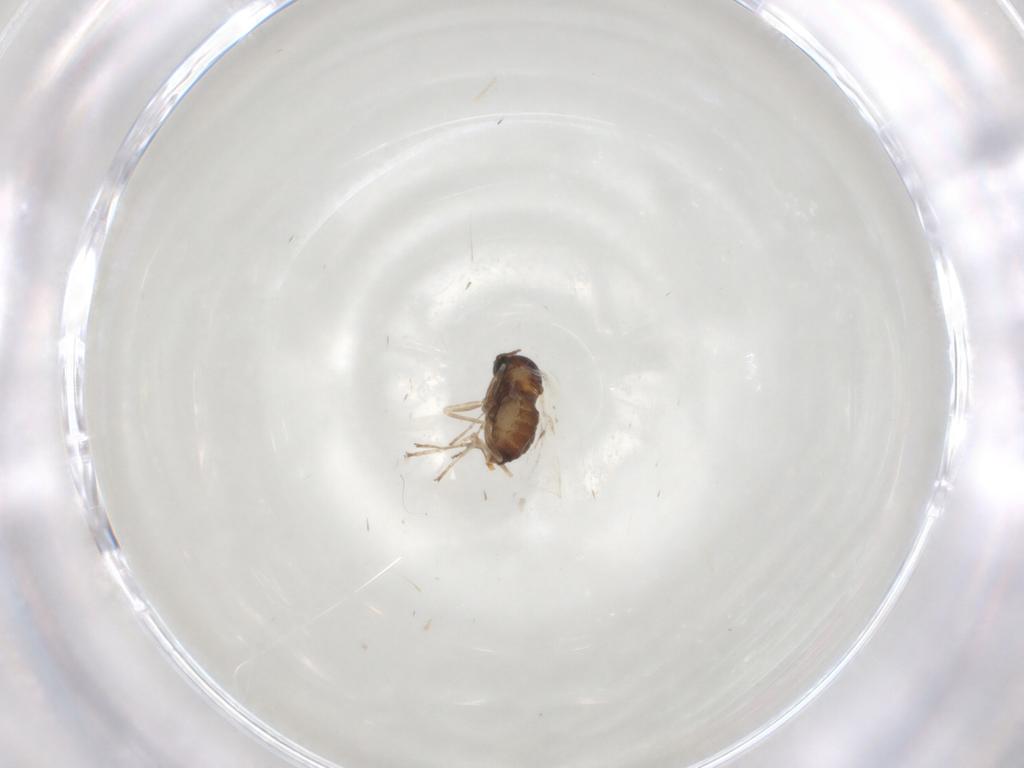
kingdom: Animalia
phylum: Arthropoda
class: Insecta
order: Diptera
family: Cecidomyiidae
